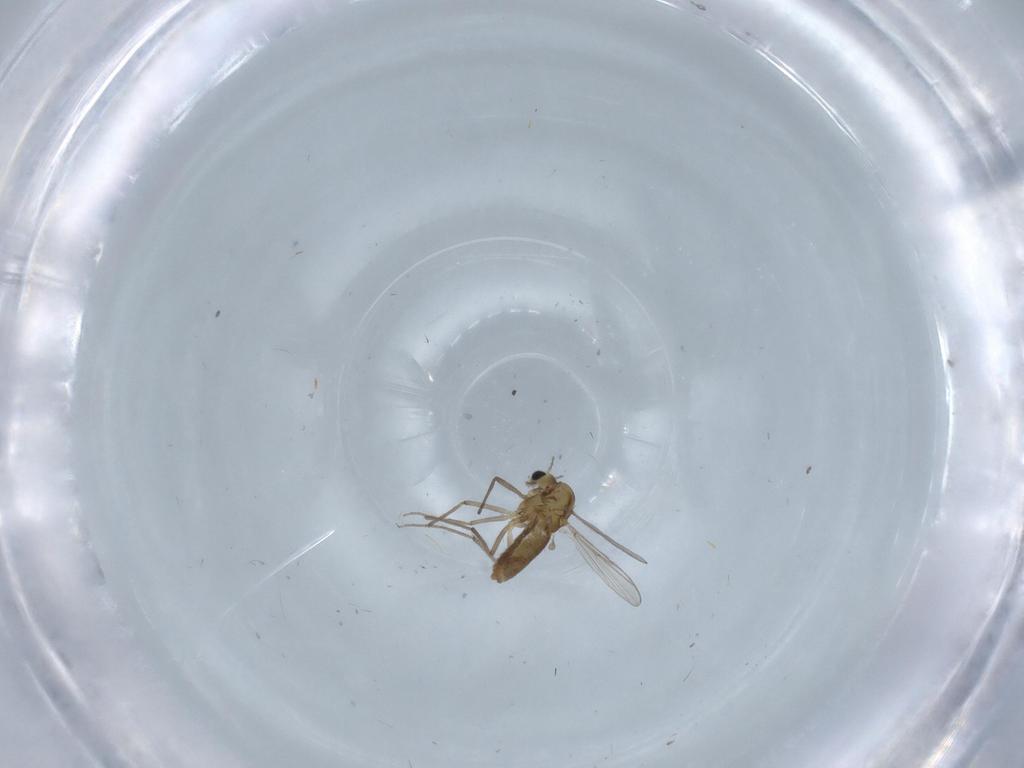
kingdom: Animalia
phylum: Arthropoda
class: Insecta
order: Diptera
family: Chironomidae
